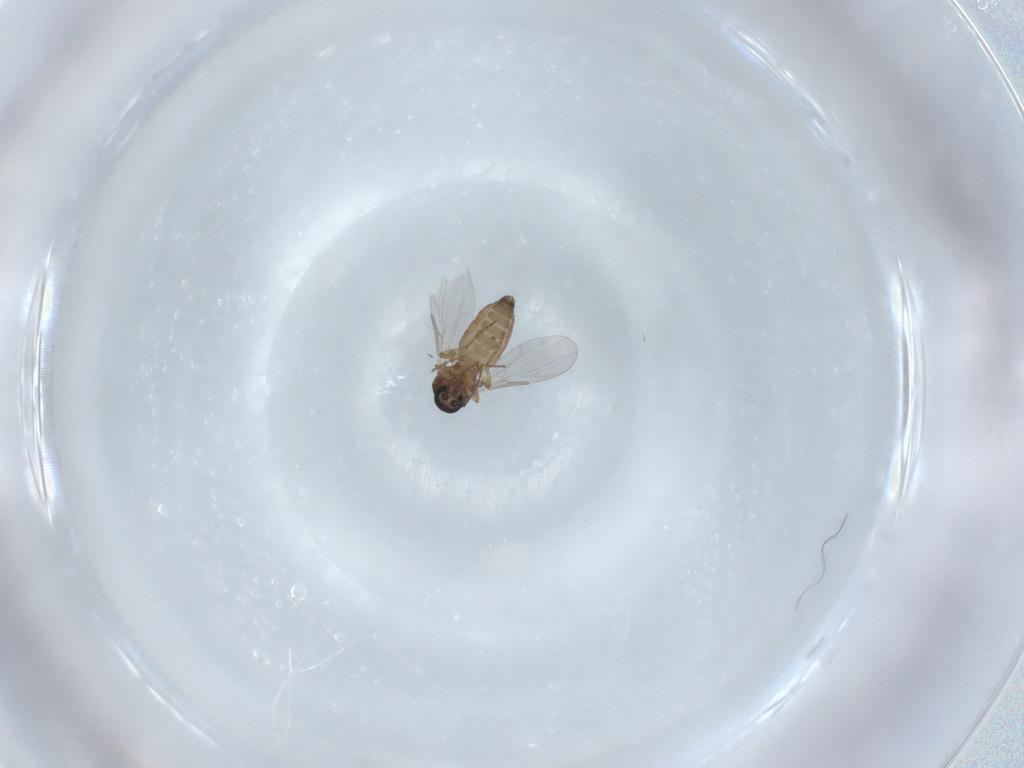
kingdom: Animalia
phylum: Arthropoda
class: Insecta
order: Diptera
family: Ceratopogonidae
